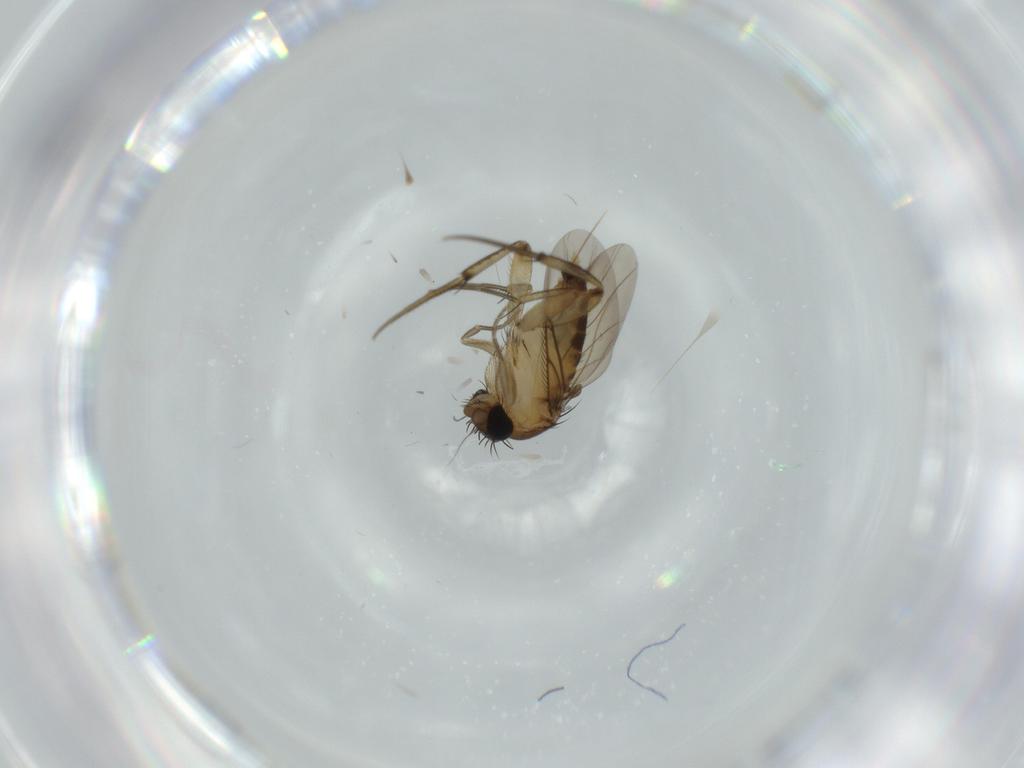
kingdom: Animalia
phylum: Arthropoda
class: Insecta
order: Diptera
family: Phoridae
